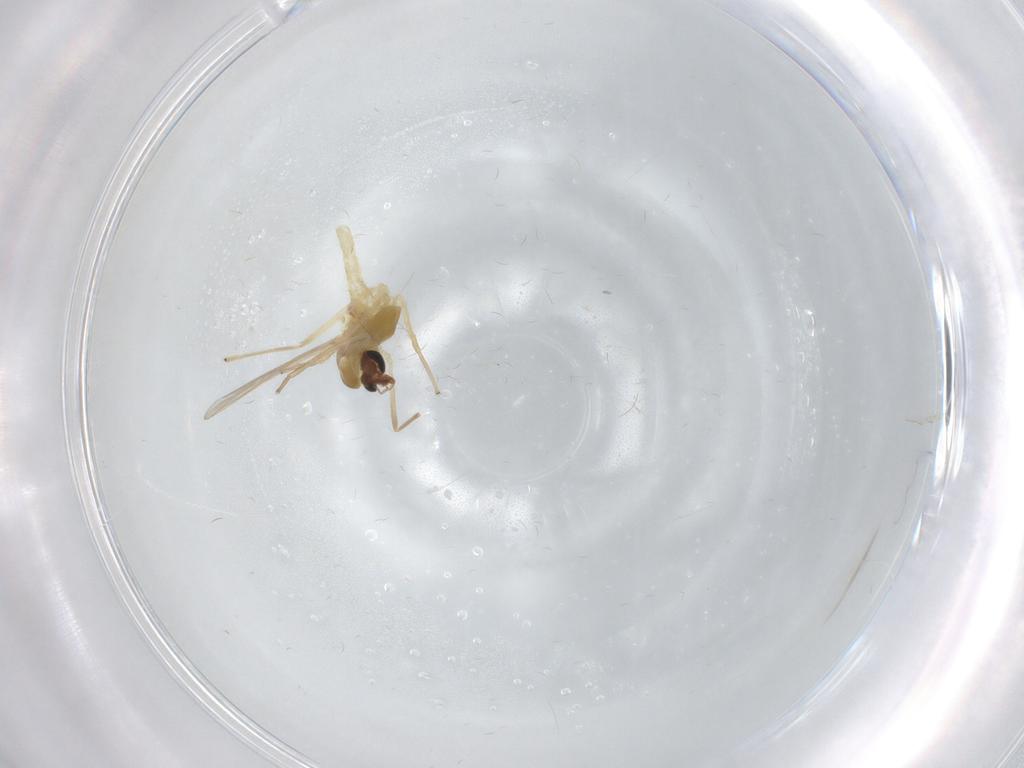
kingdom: Animalia
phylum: Arthropoda
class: Insecta
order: Diptera
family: Chironomidae
